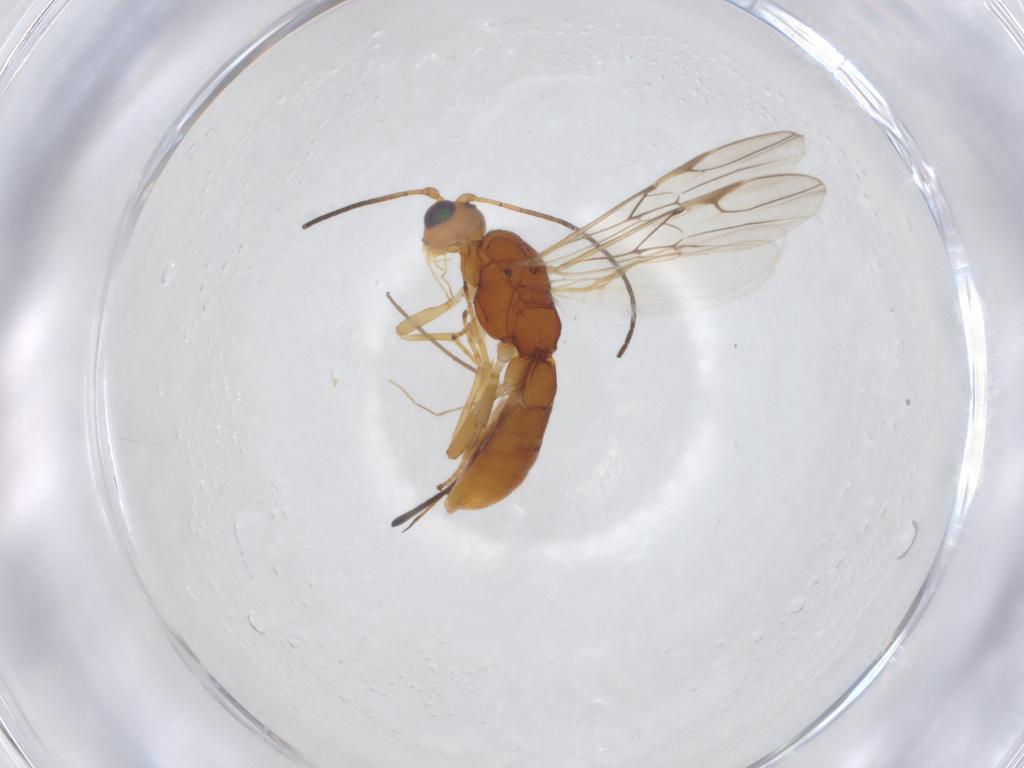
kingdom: Animalia
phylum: Arthropoda
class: Insecta
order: Hymenoptera
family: Braconidae
